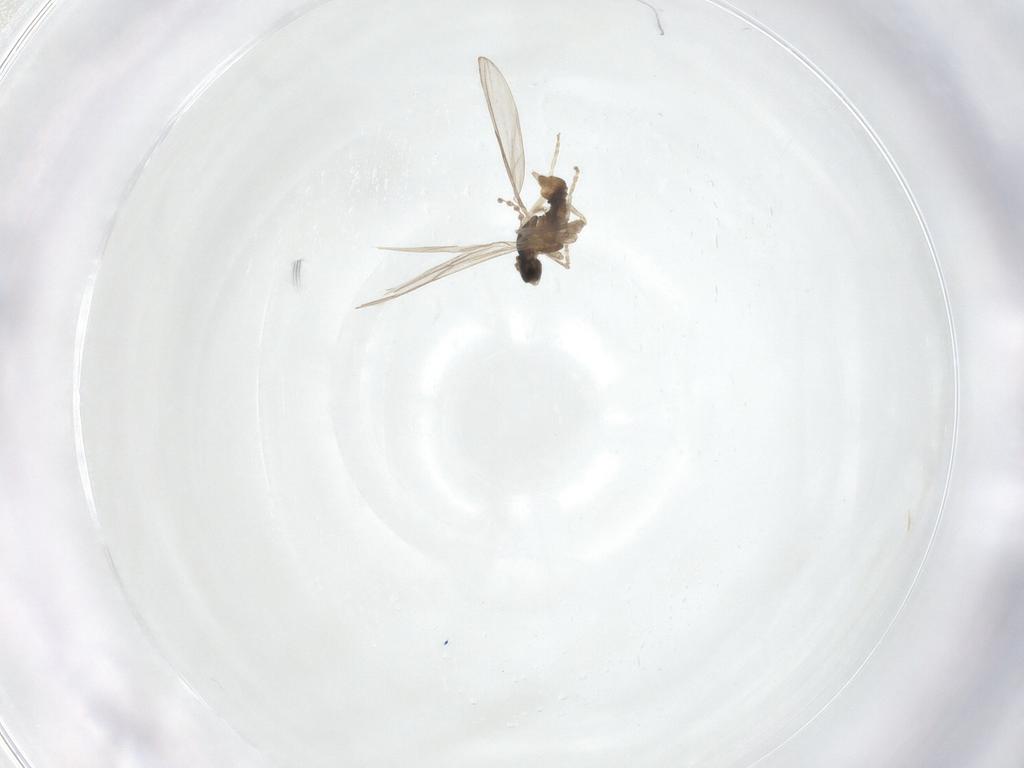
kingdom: Animalia
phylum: Arthropoda
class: Insecta
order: Diptera
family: Cecidomyiidae
